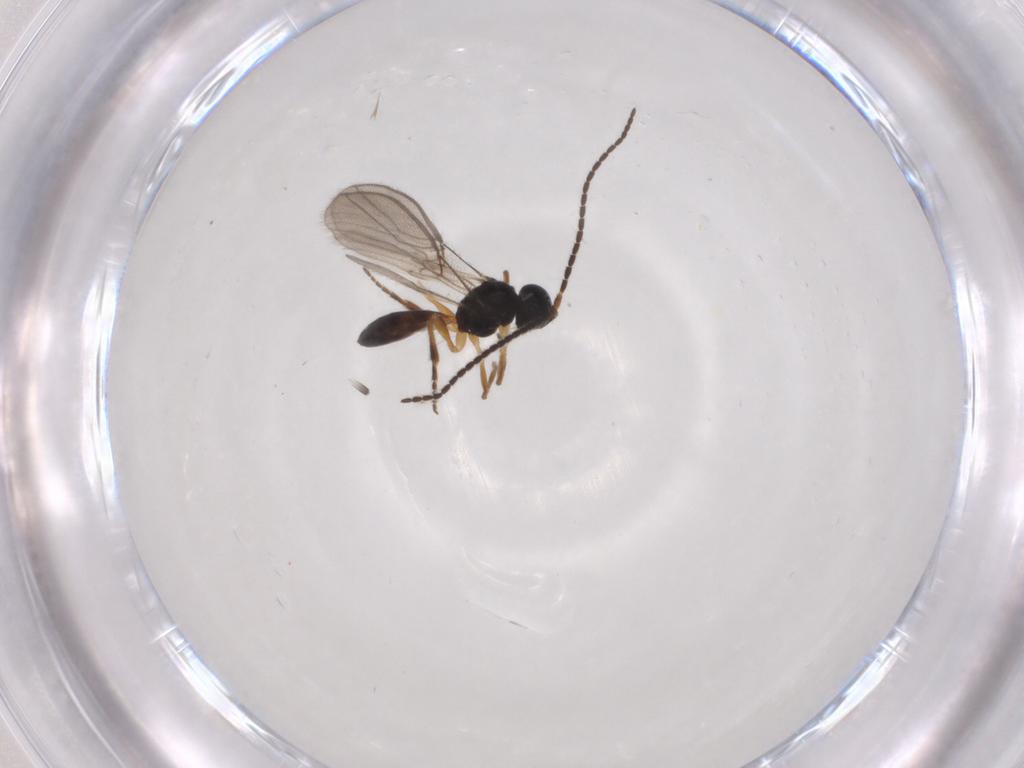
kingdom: Animalia
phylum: Arthropoda
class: Insecta
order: Hymenoptera
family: Braconidae
